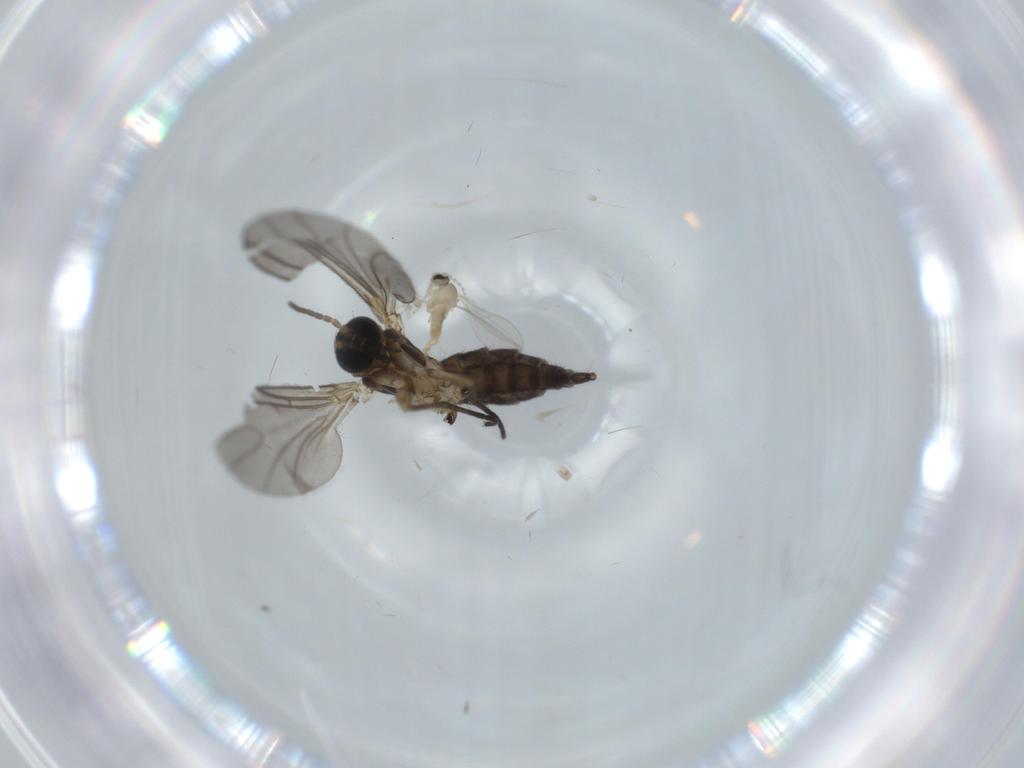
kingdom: Animalia
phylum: Arthropoda
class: Insecta
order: Diptera
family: Cecidomyiidae
